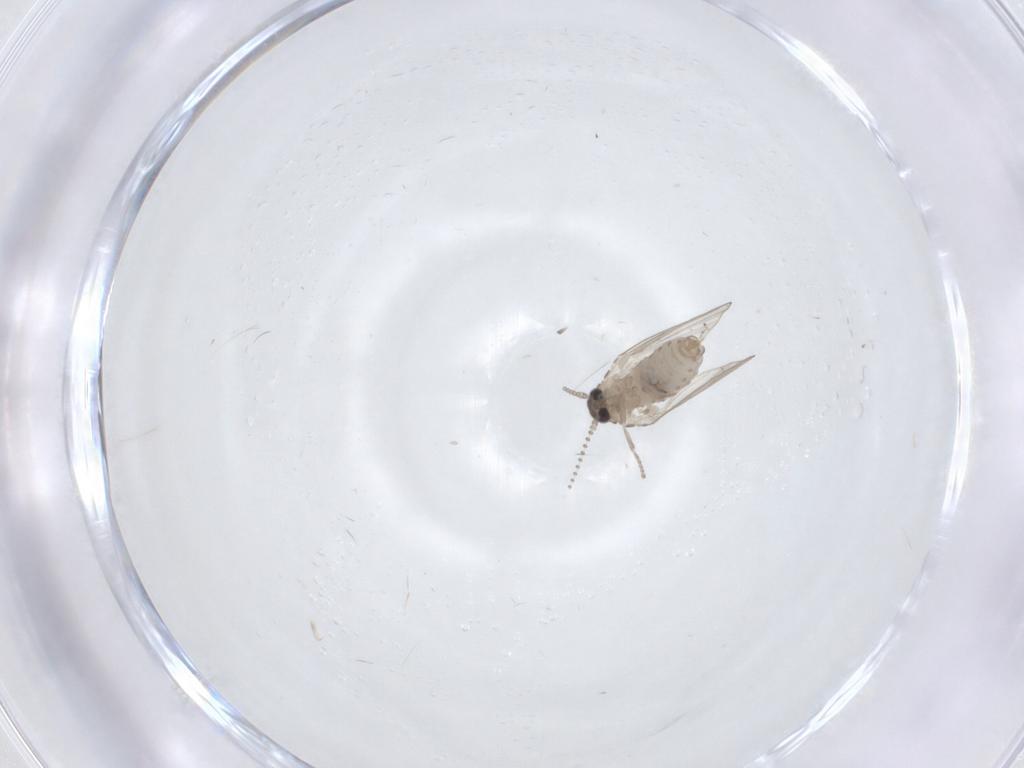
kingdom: Animalia
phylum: Arthropoda
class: Insecta
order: Diptera
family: Psychodidae
